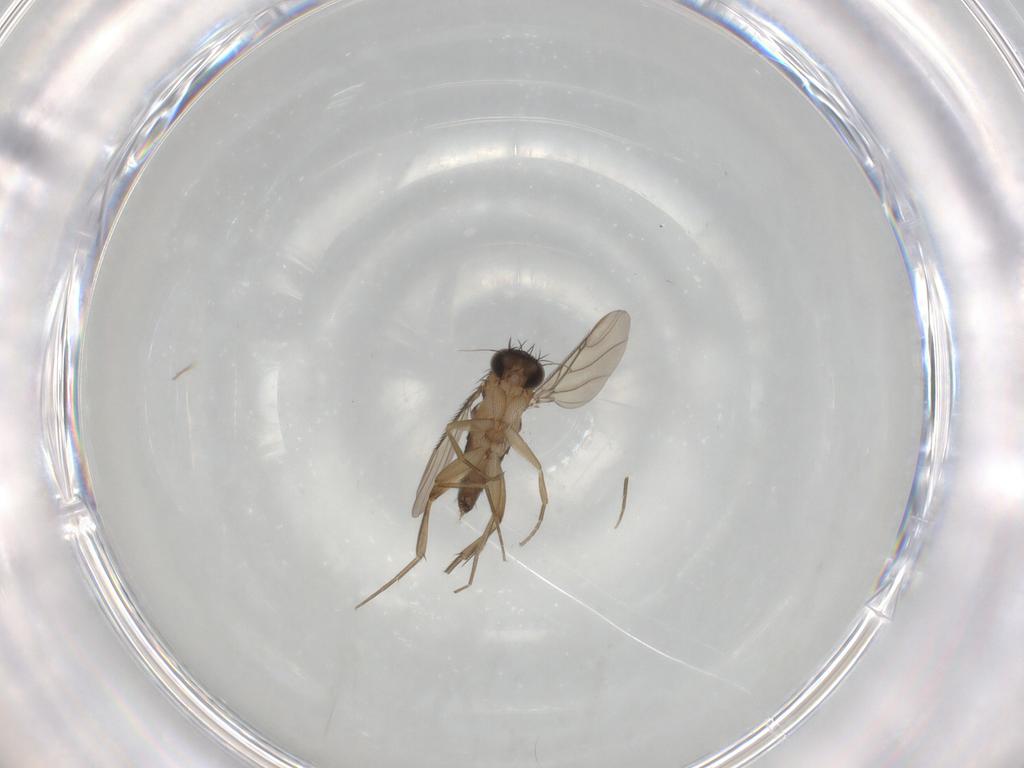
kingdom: Animalia
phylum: Arthropoda
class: Insecta
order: Diptera
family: Phoridae
